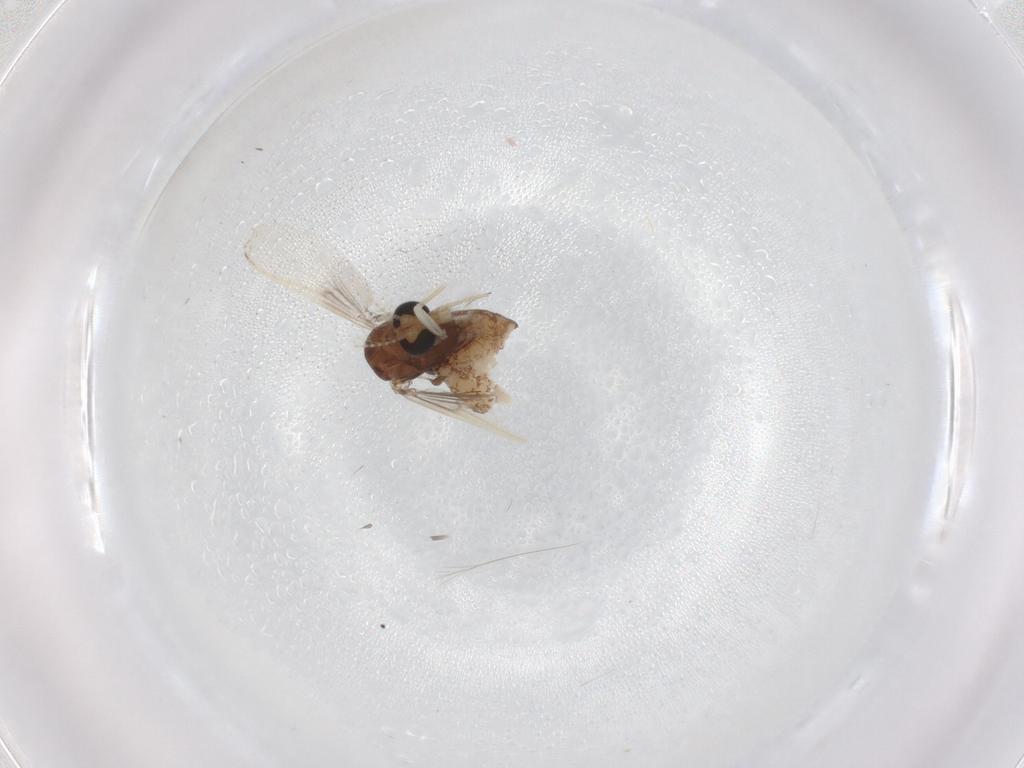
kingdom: Animalia
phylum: Arthropoda
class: Insecta
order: Diptera
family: Chironomidae
